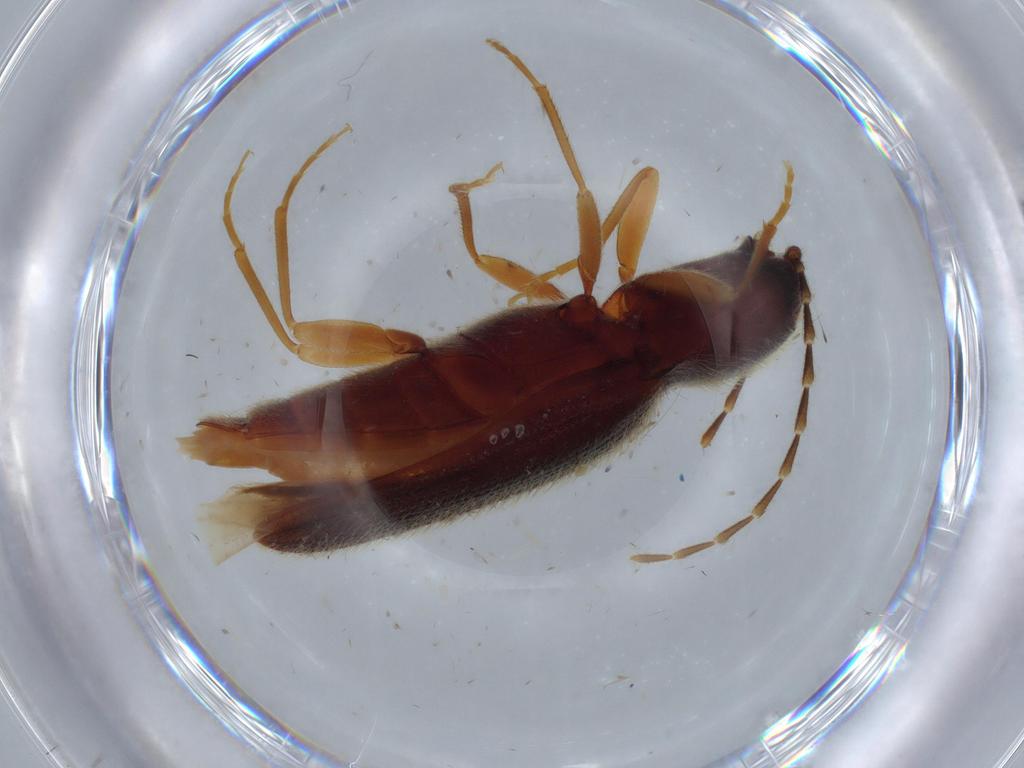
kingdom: Animalia
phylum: Arthropoda
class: Insecta
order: Coleoptera
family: Elateridae
